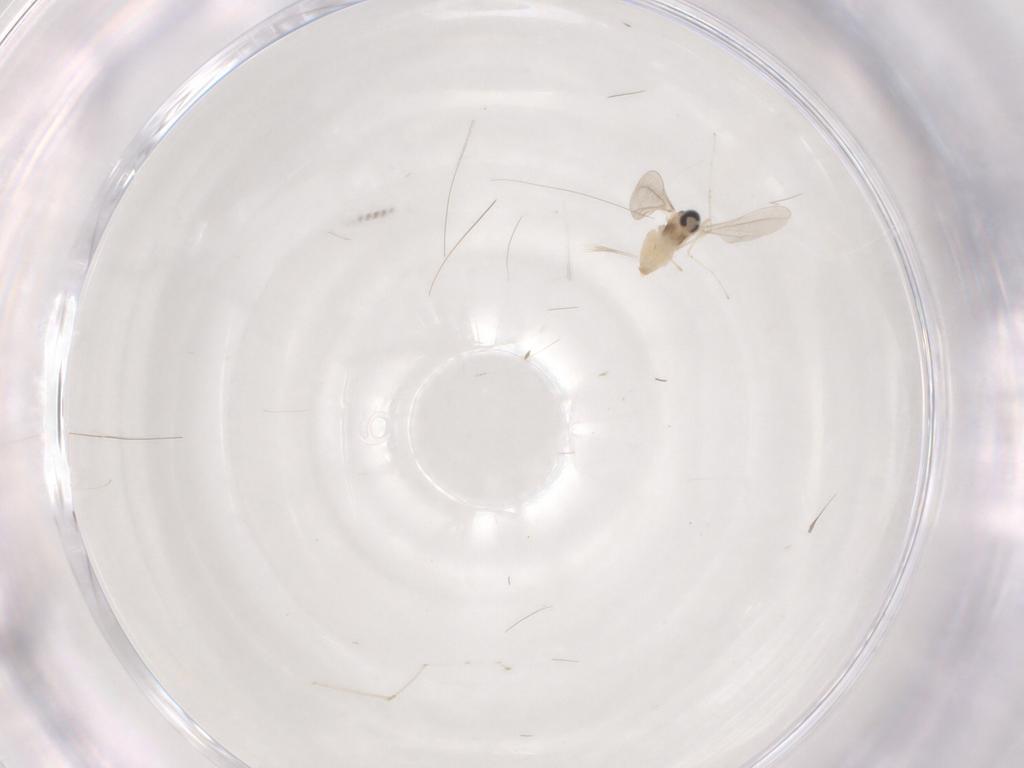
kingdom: Animalia
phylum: Arthropoda
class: Insecta
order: Diptera
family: Cecidomyiidae
